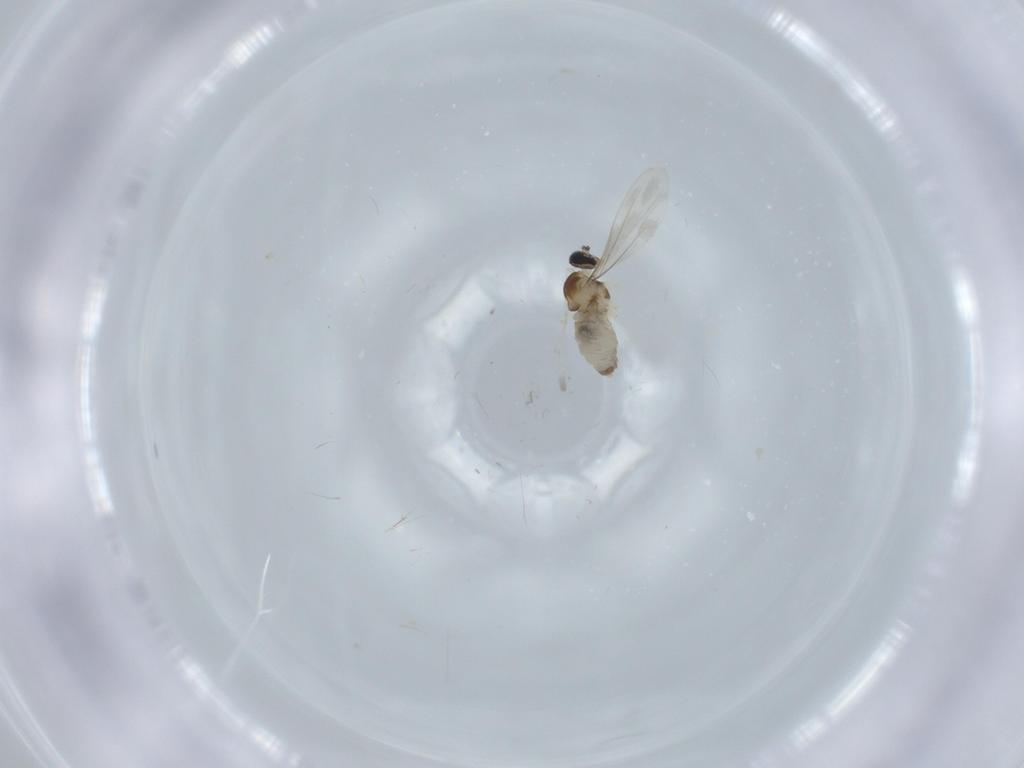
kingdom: Animalia
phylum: Arthropoda
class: Insecta
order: Diptera
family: Cecidomyiidae
